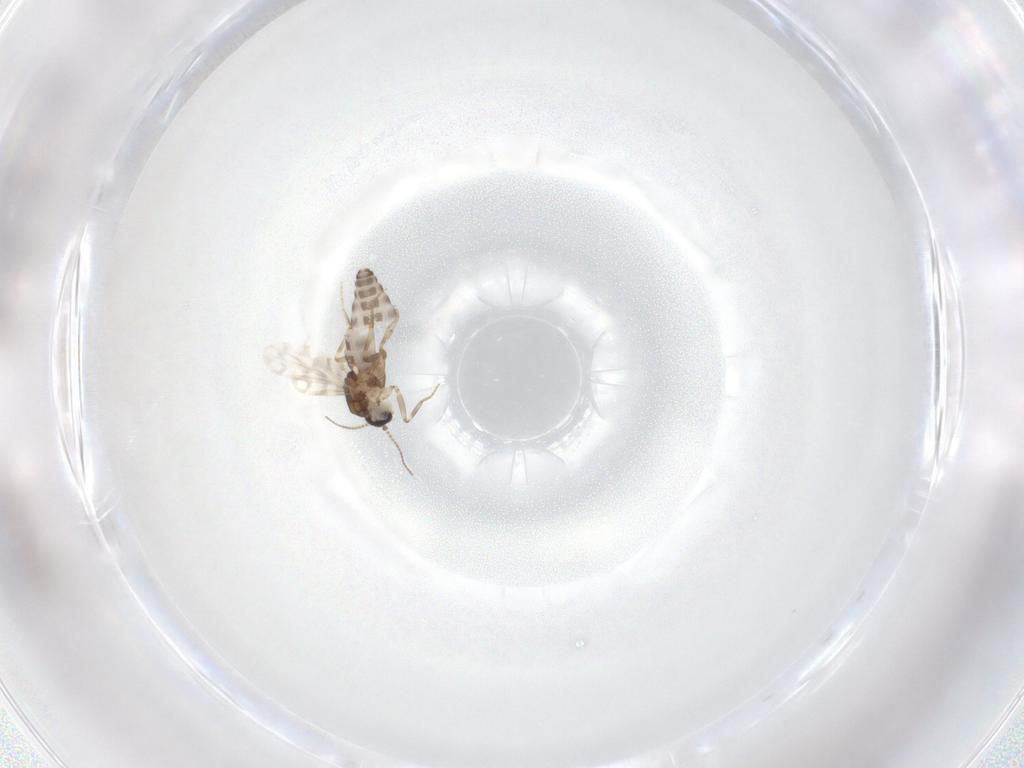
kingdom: Animalia
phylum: Arthropoda
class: Insecta
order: Diptera
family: Ceratopogonidae
